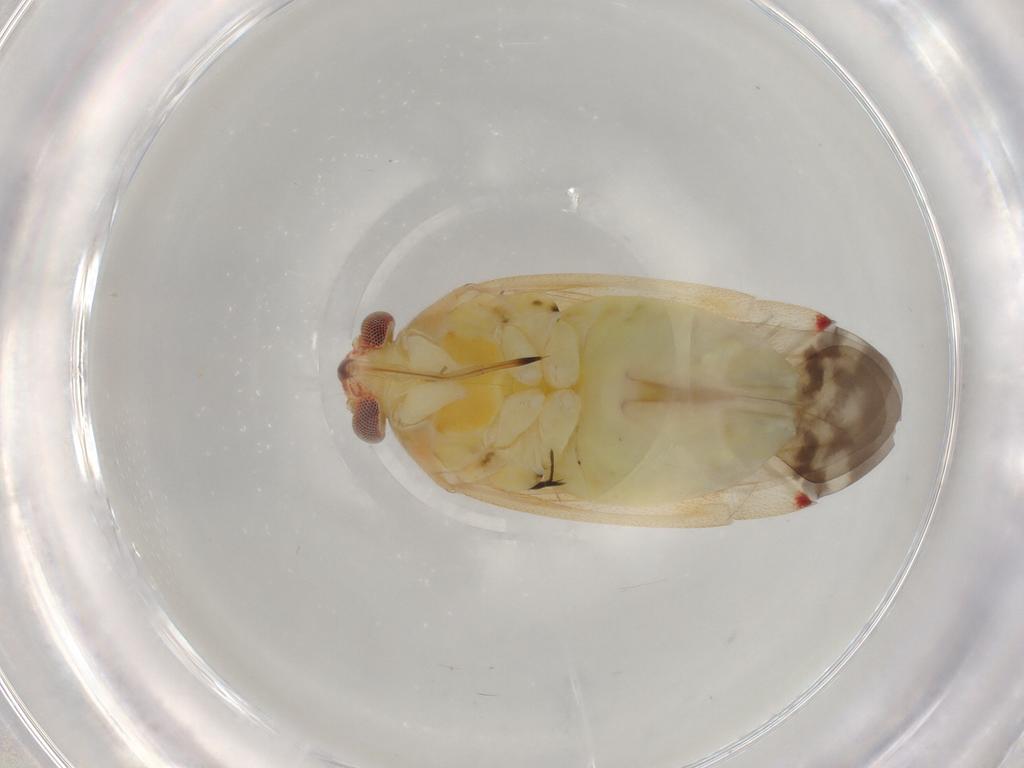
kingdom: Animalia
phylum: Arthropoda
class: Insecta
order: Hemiptera
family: Miridae
